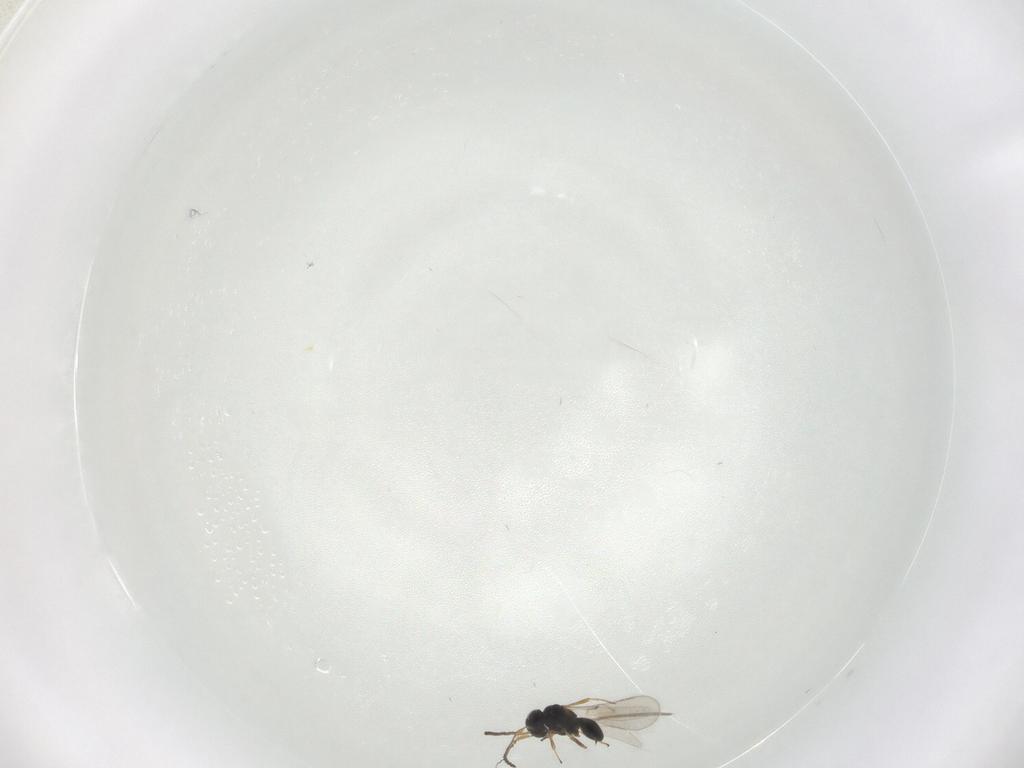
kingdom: Animalia
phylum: Arthropoda
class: Insecta
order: Hymenoptera
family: Scelionidae
